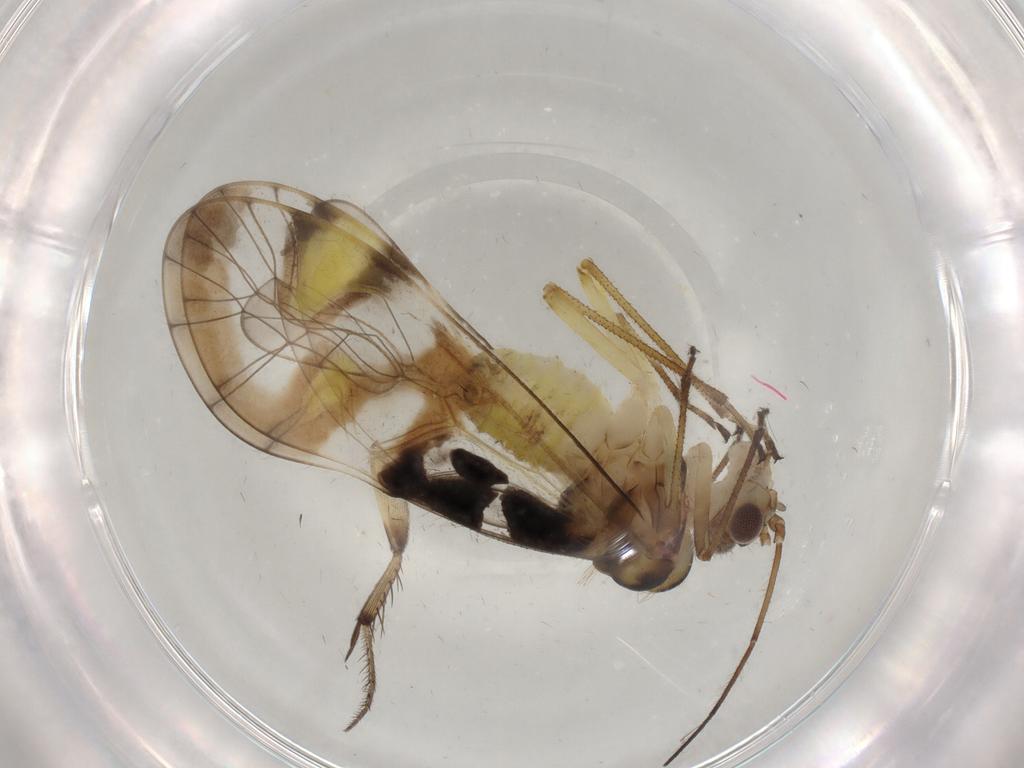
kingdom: Animalia
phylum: Arthropoda
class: Insecta
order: Psocodea
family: Amphipsocidae
